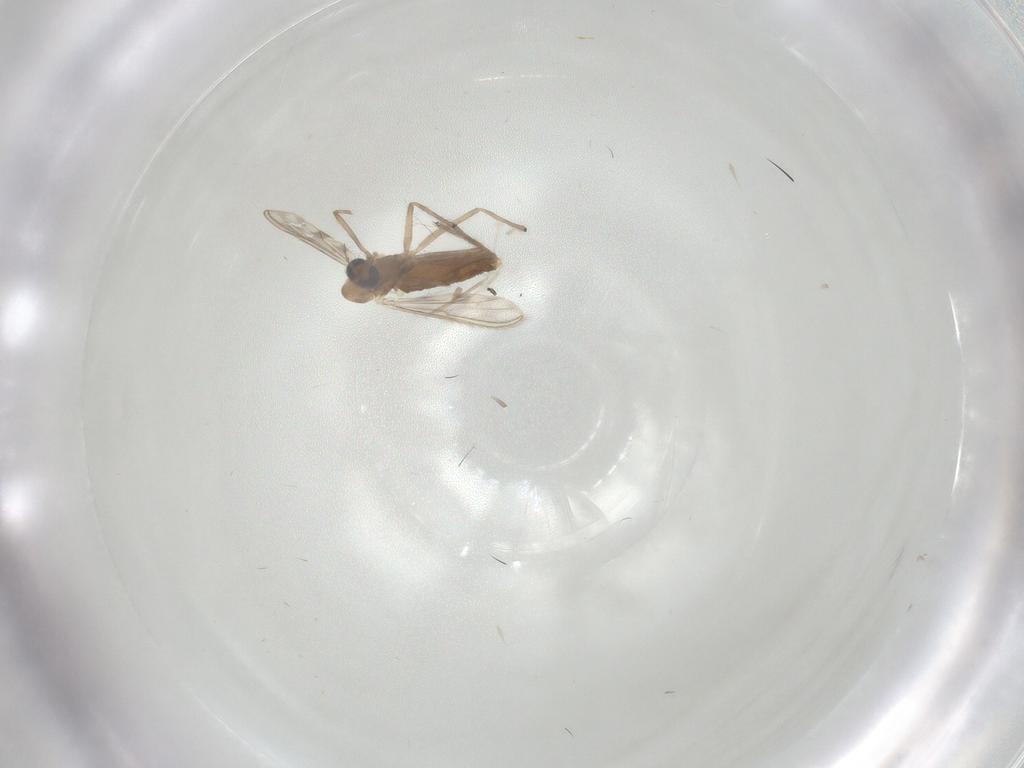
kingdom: Animalia
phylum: Arthropoda
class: Insecta
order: Diptera
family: Chironomidae
